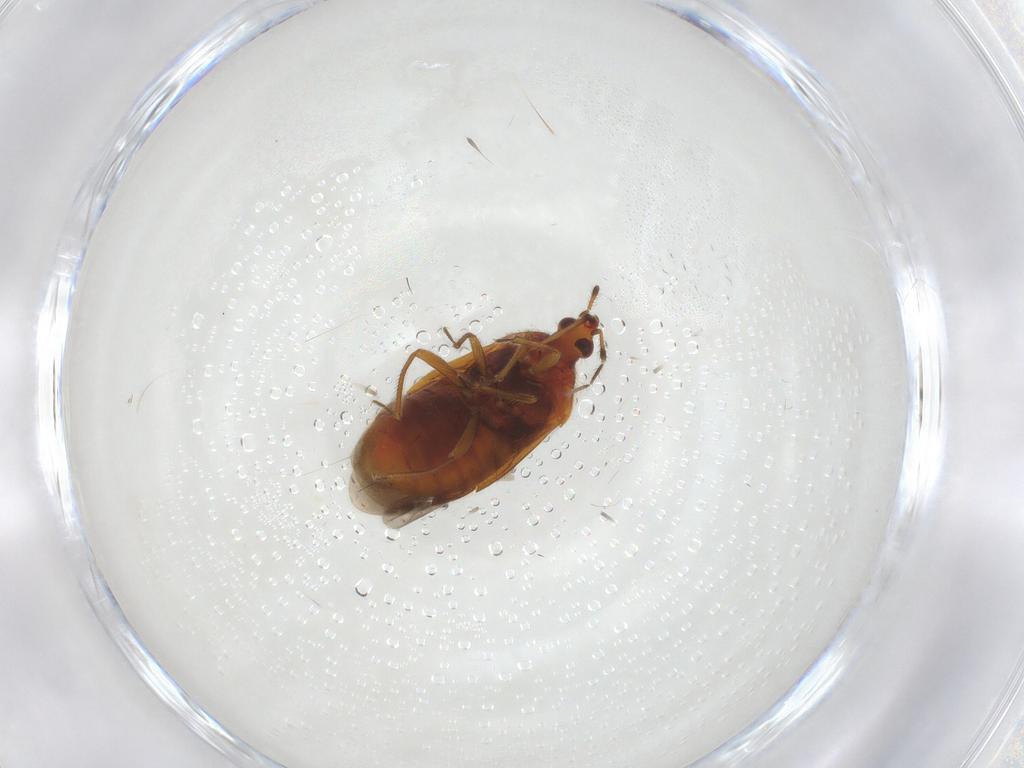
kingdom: Animalia
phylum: Arthropoda
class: Insecta
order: Hemiptera
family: Anthocoridae
